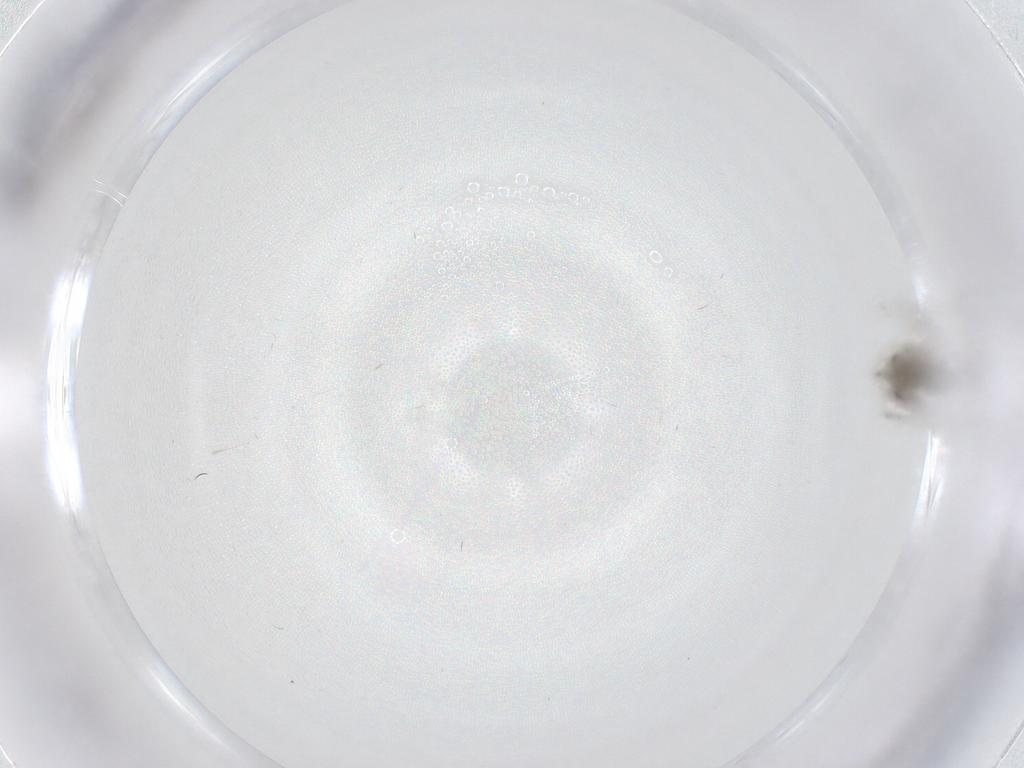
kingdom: Animalia
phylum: Arthropoda
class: Insecta
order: Diptera
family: Chironomidae
